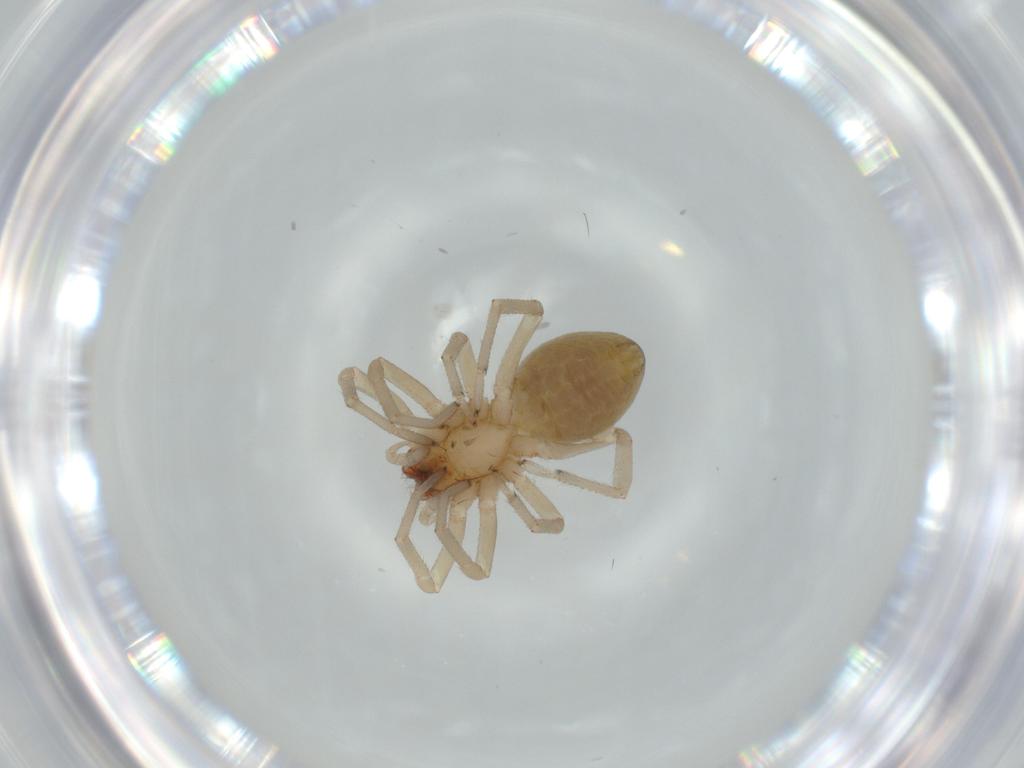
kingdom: Animalia
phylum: Arthropoda
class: Arachnida
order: Araneae
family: Trachelidae
